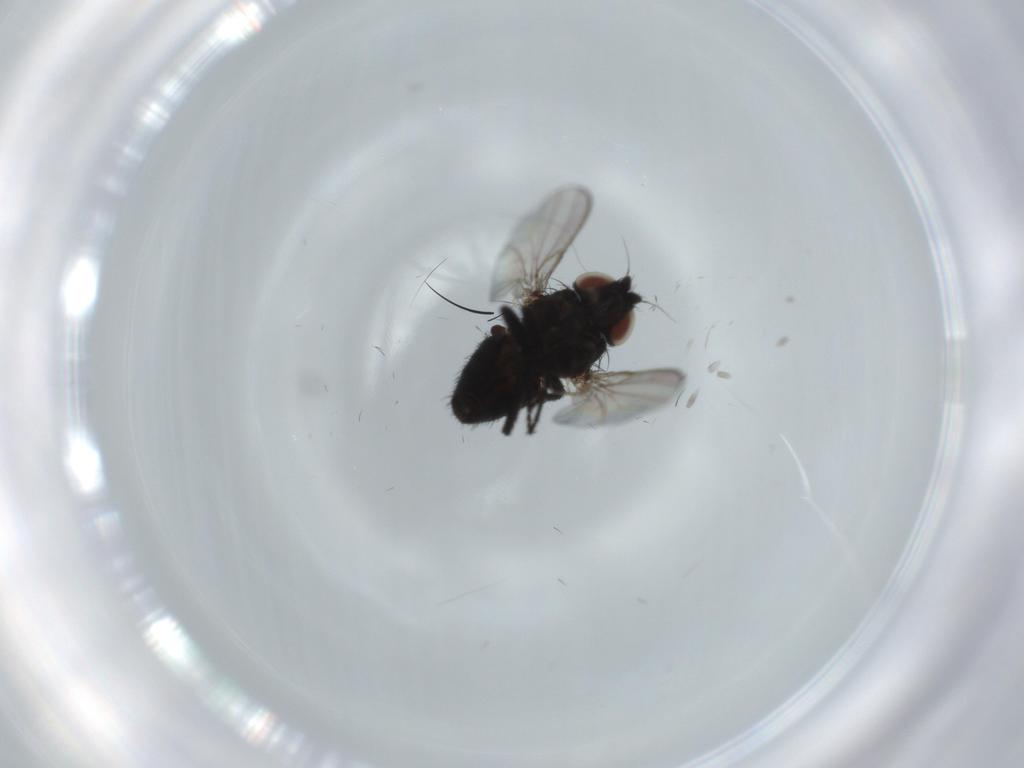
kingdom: Animalia
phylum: Arthropoda
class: Insecta
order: Diptera
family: Milichiidae
